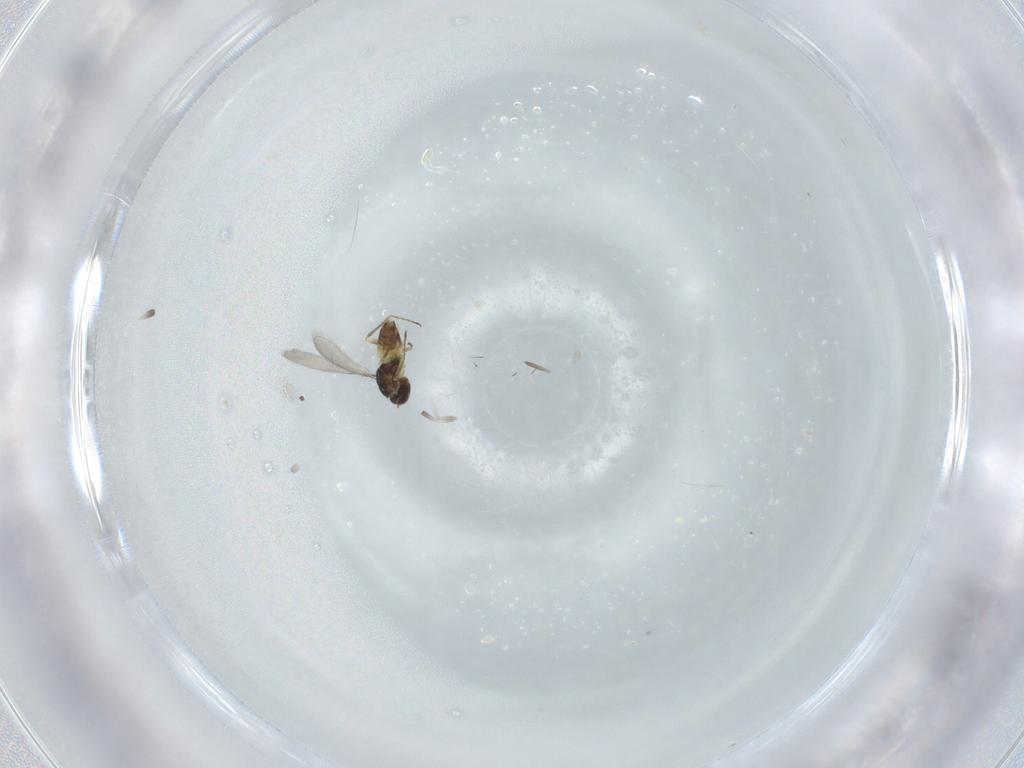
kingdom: Animalia
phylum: Arthropoda
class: Insecta
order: Hymenoptera
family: Mymaridae
